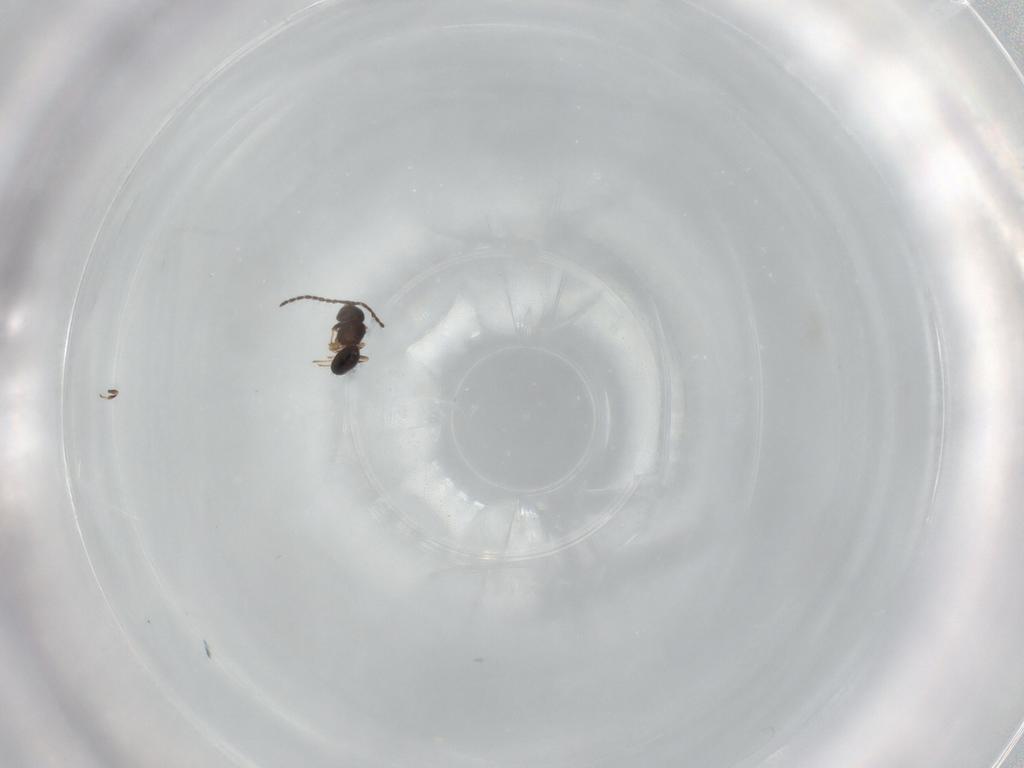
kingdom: Animalia
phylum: Arthropoda
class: Insecta
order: Hymenoptera
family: Scelionidae
